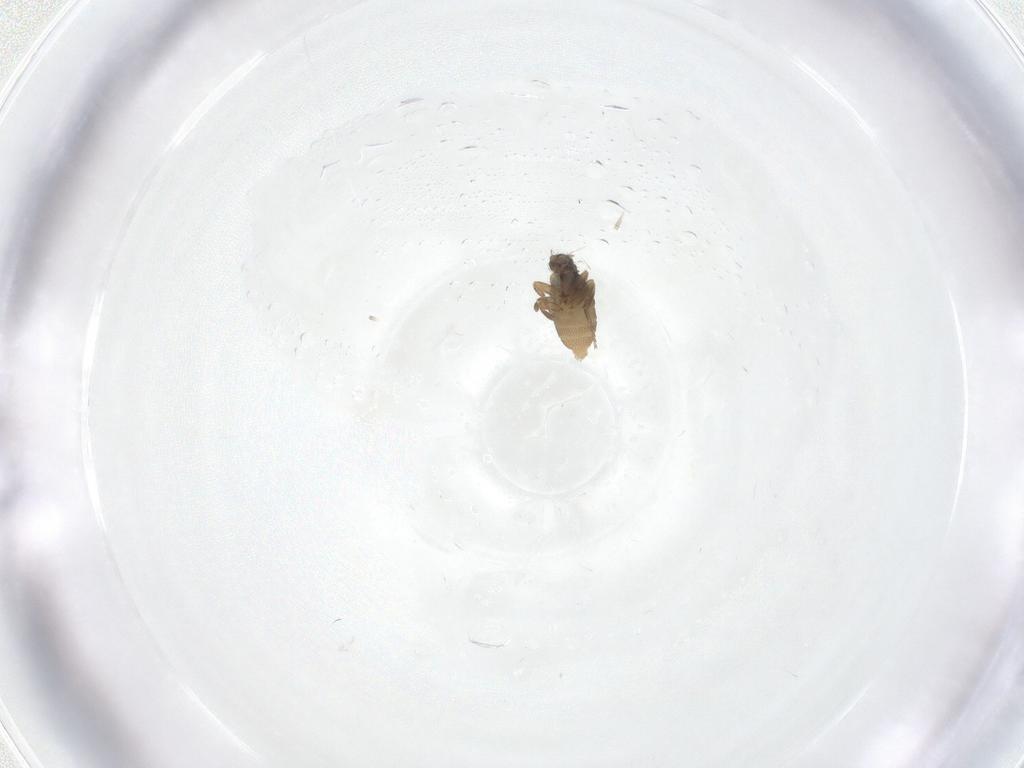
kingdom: Animalia
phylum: Arthropoda
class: Insecta
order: Diptera
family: Phoridae
